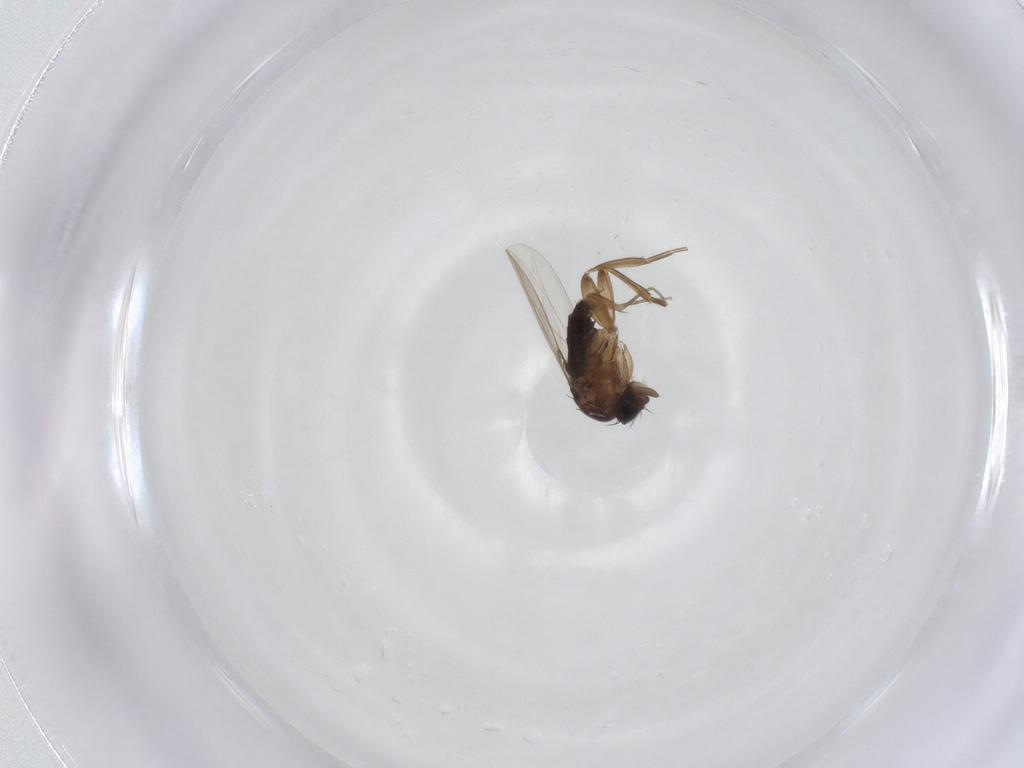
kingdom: Animalia
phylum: Arthropoda
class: Insecta
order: Diptera
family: Phoridae
